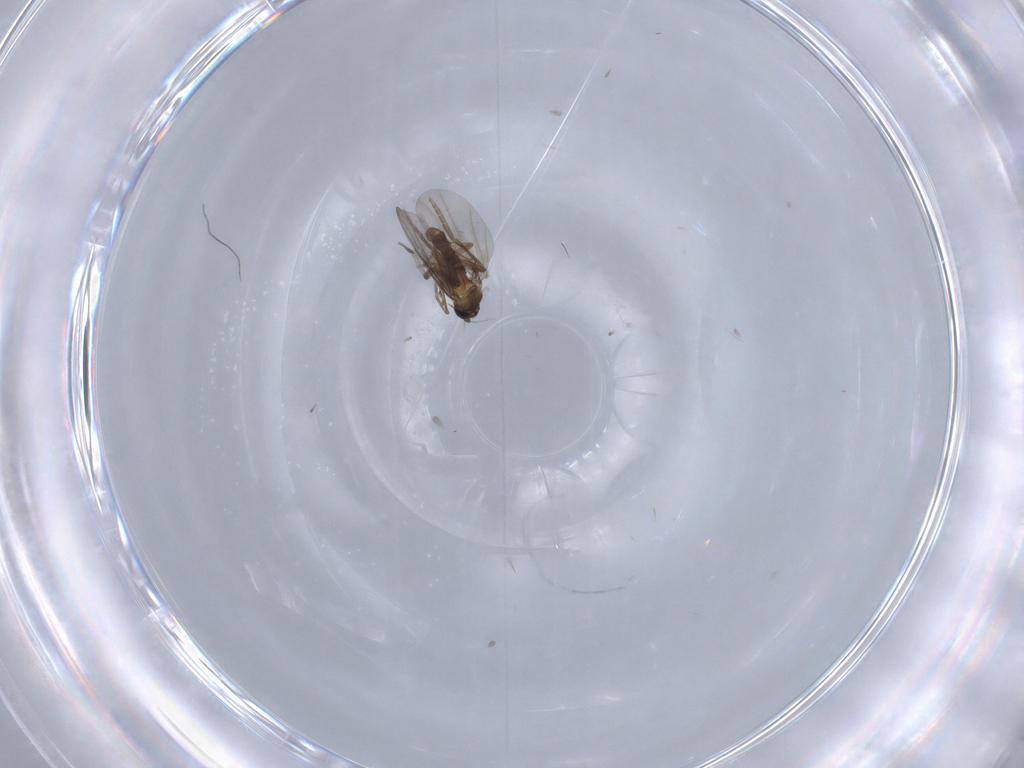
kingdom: Animalia
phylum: Arthropoda
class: Insecta
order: Diptera
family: Phoridae
